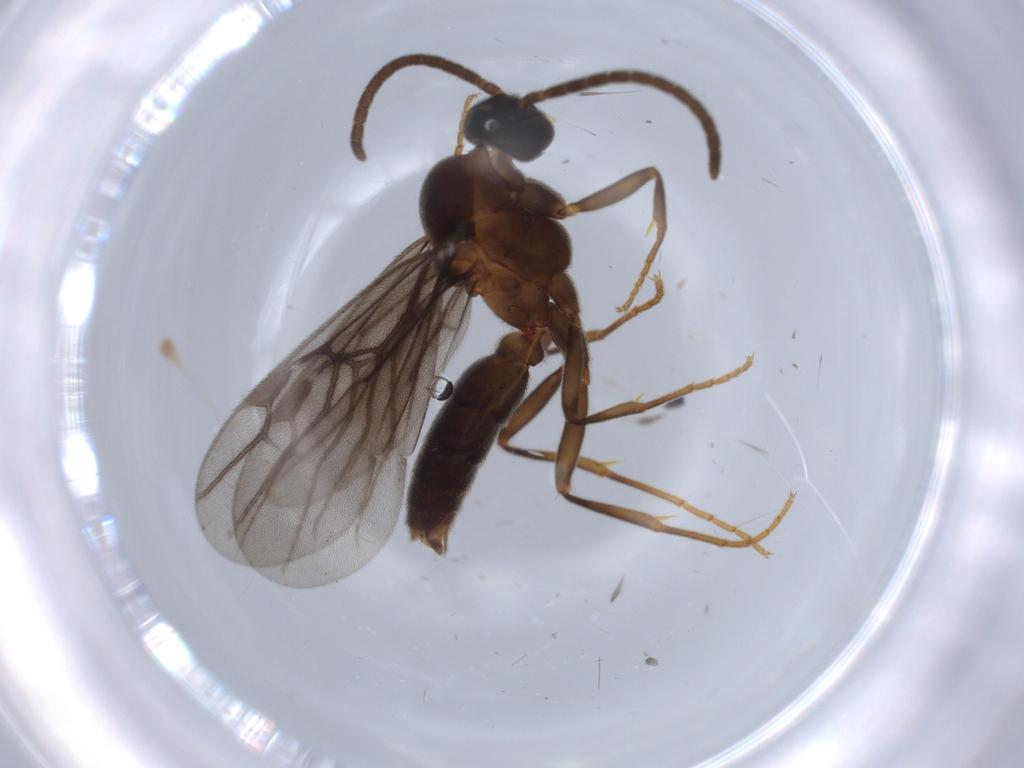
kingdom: Animalia
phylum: Arthropoda
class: Insecta
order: Hymenoptera
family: Formicidae
